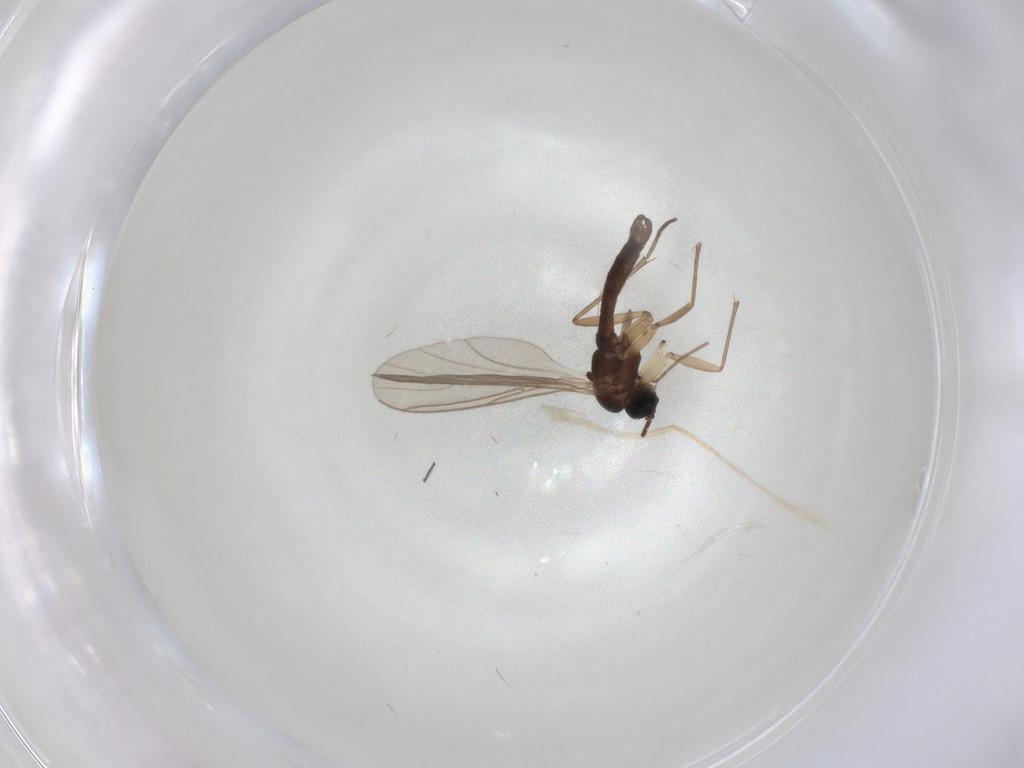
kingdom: Animalia
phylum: Arthropoda
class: Insecta
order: Diptera
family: Sciaridae
